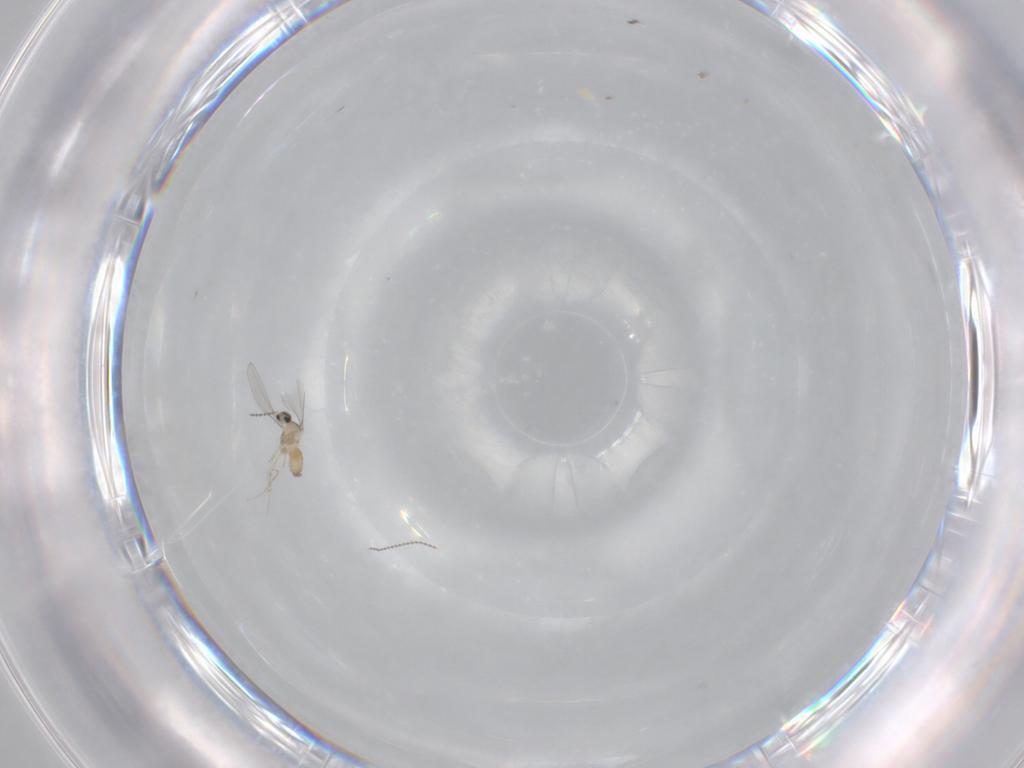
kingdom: Animalia
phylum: Arthropoda
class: Insecta
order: Diptera
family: Cecidomyiidae
